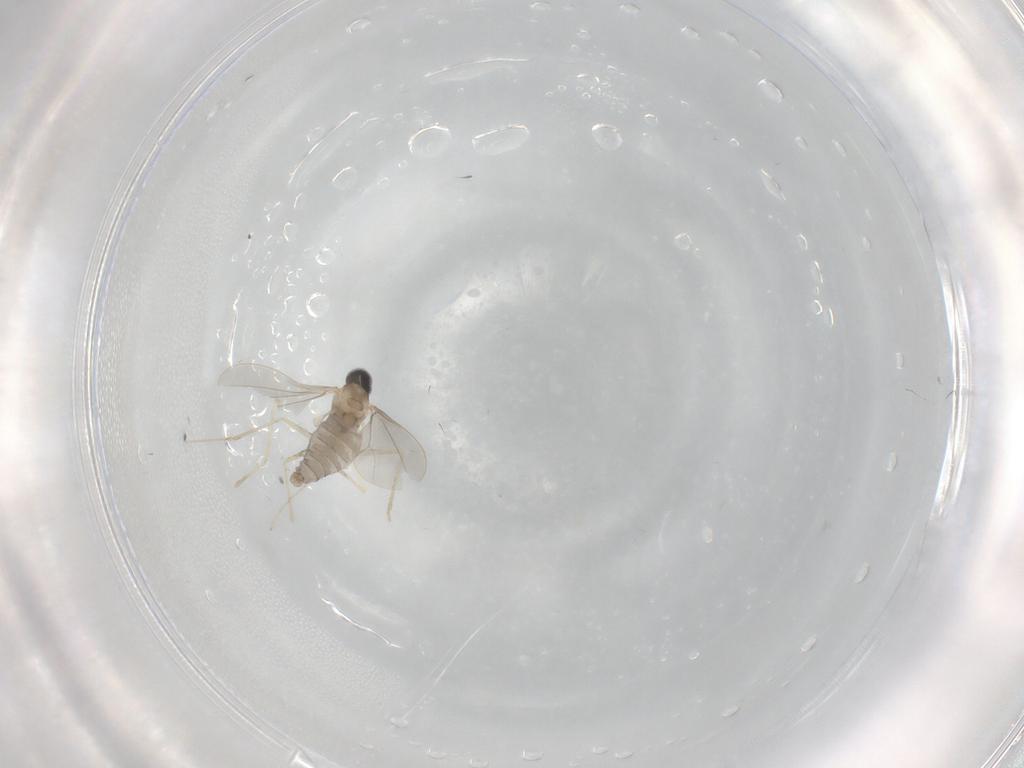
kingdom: Animalia
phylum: Arthropoda
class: Insecta
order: Diptera
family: Cecidomyiidae
